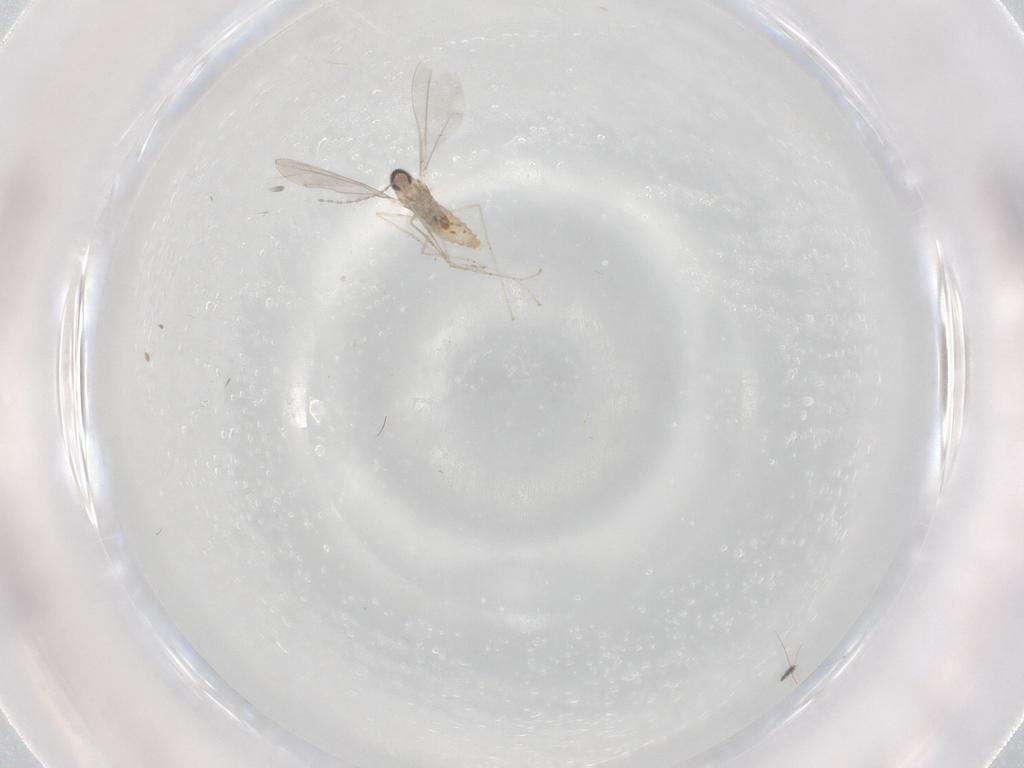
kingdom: Animalia
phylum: Arthropoda
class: Insecta
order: Diptera
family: Cecidomyiidae
